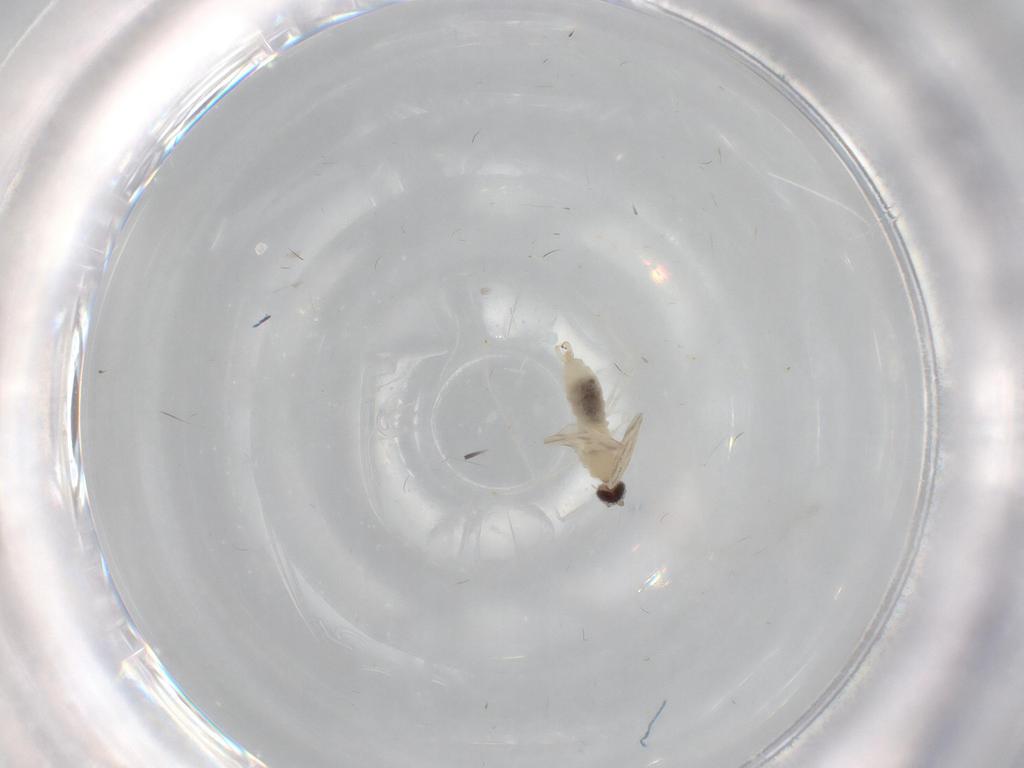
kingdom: Animalia
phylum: Arthropoda
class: Insecta
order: Diptera
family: Cecidomyiidae
